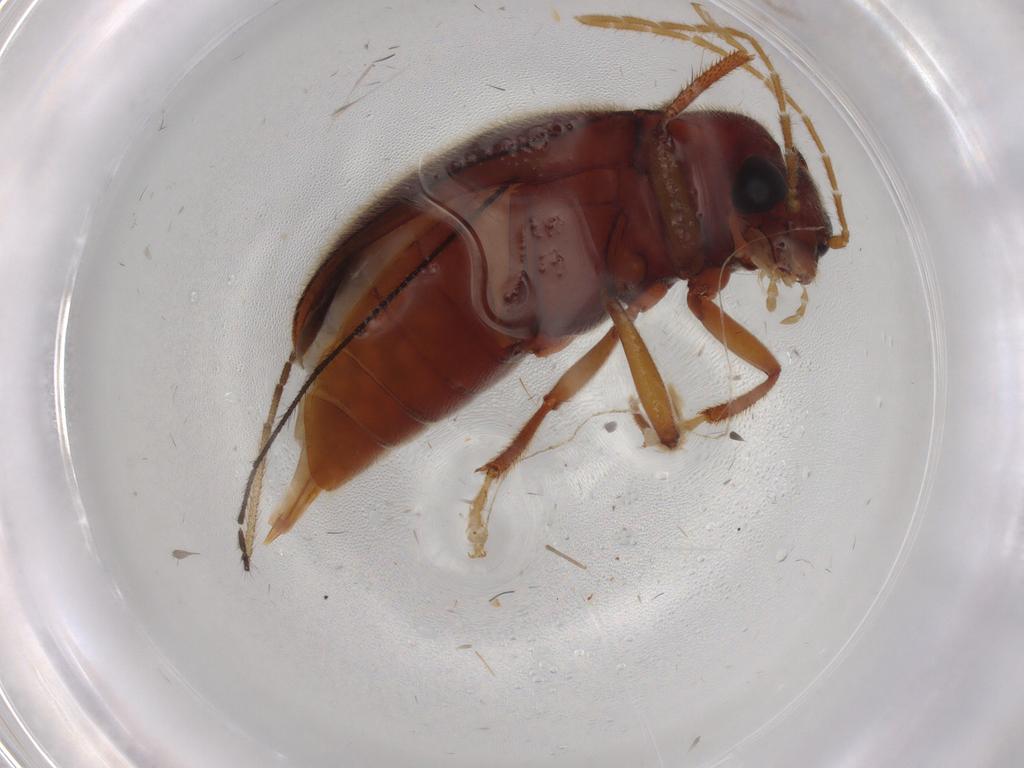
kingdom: Animalia
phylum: Arthropoda
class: Insecta
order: Coleoptera
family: Ptilodactylidae
